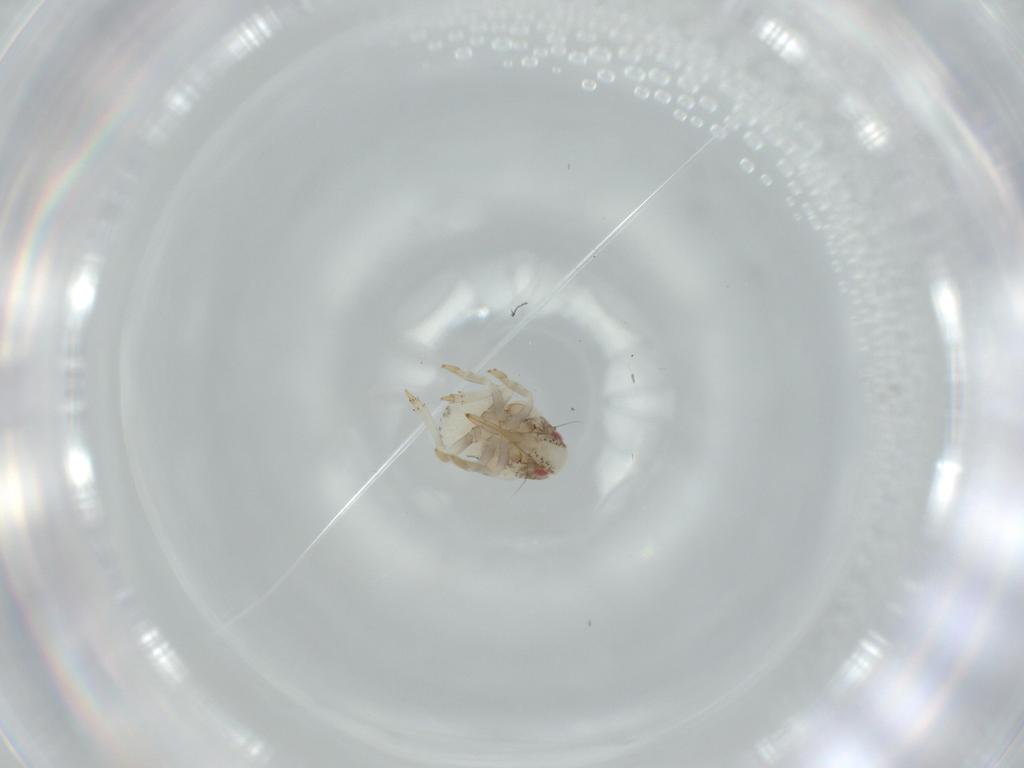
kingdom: Animalia
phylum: Arthropoda
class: Insecta
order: Hemiptera
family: Acanaloniidae
